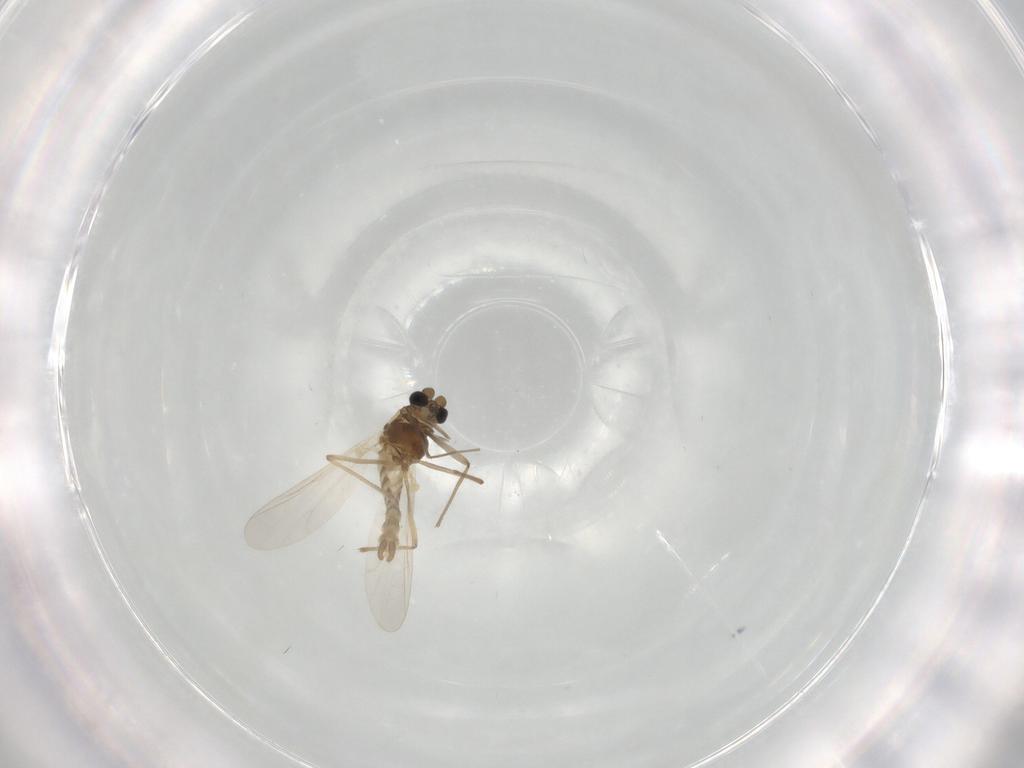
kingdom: Animalia
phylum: Arthropoda
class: Insecta
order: Diptera
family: Chironomidae
